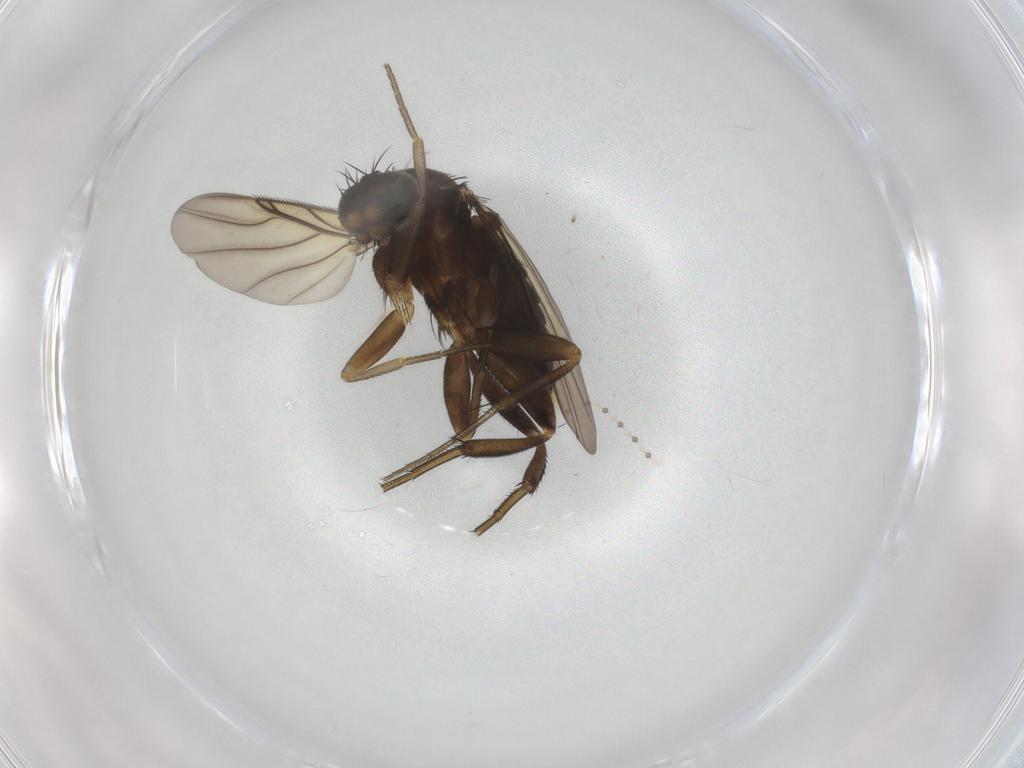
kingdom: Animalia
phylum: Arthropoda
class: Insecta
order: Diptera
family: Phoridae
